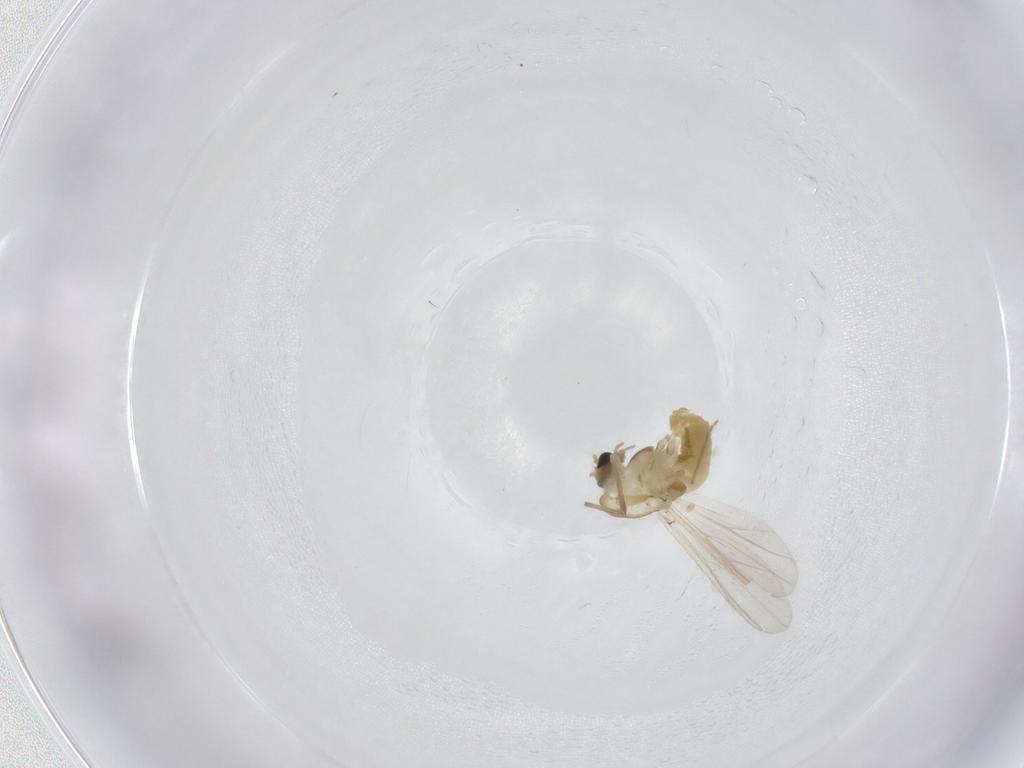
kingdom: Animalia
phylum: Arthropoda
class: Insecta
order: Diptera
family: Chironomidae
